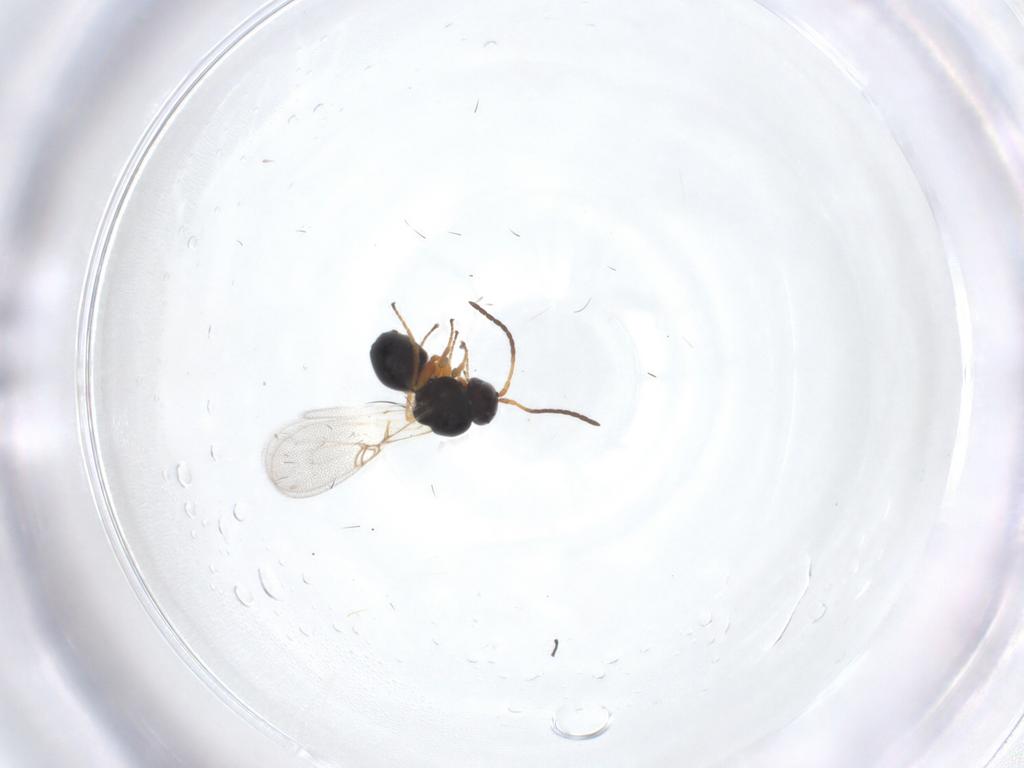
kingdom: Animalia
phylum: Arthropoda
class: Insecta
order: Hymenoptera
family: Figitidae
